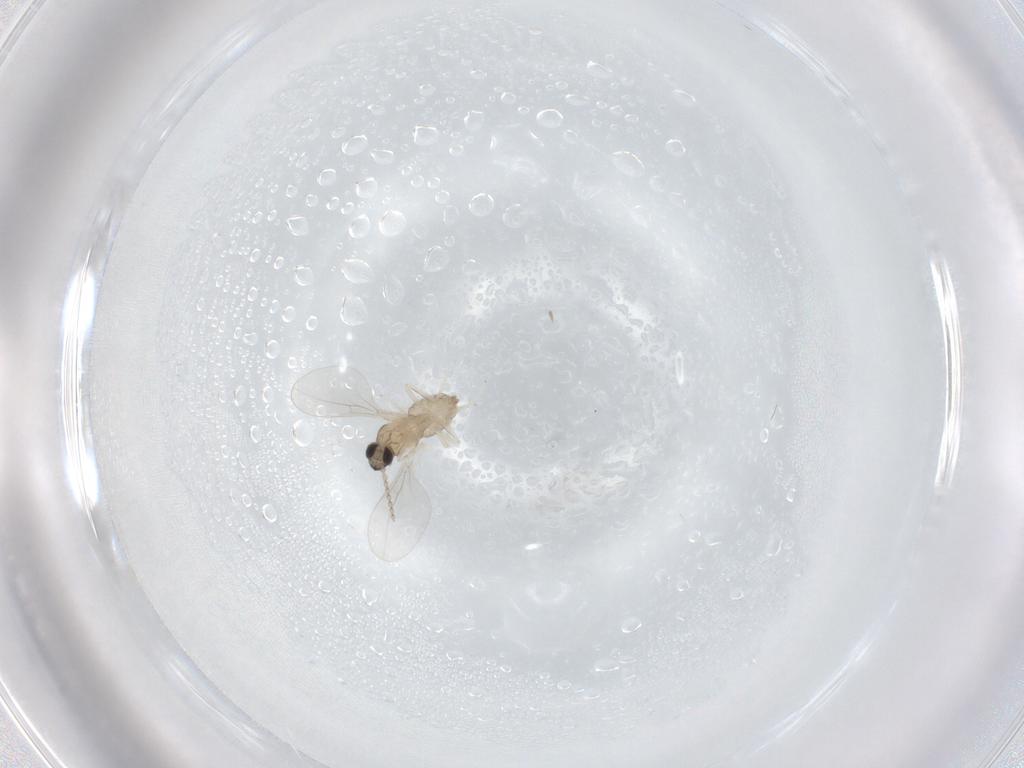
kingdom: Animalia
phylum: Arthropoda
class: Insecta
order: Diptera
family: Cecidomyiidae
